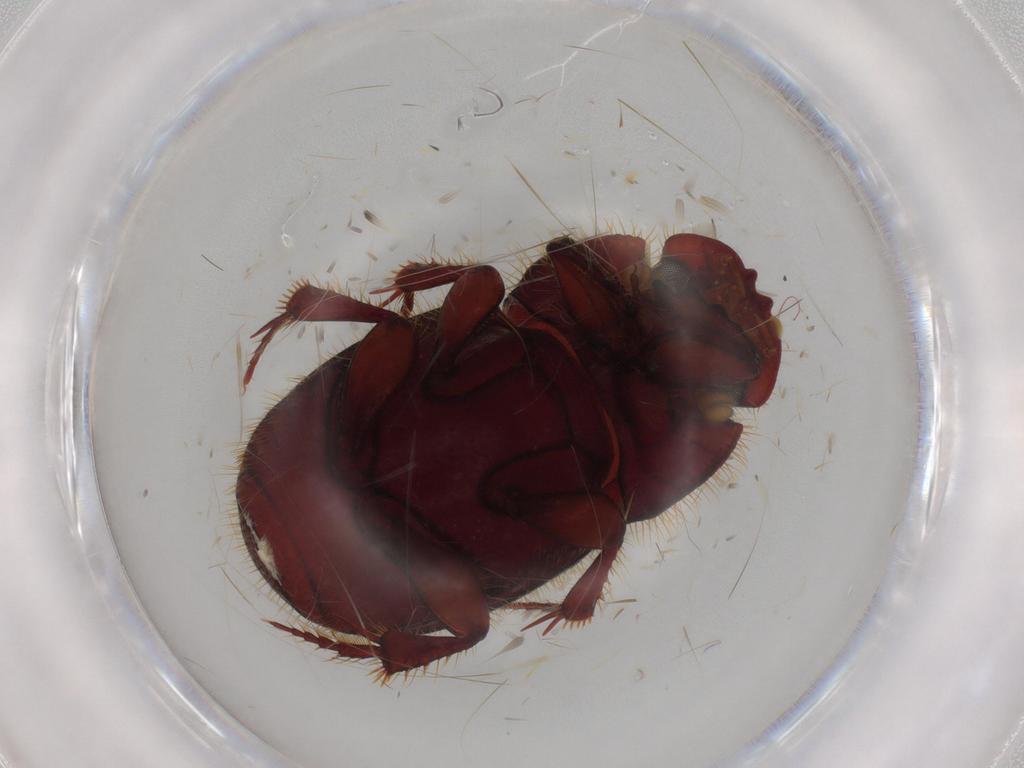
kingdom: Animalia
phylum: Arthropoda
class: Insecta
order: Coleoptera
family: Scarabaeidae
